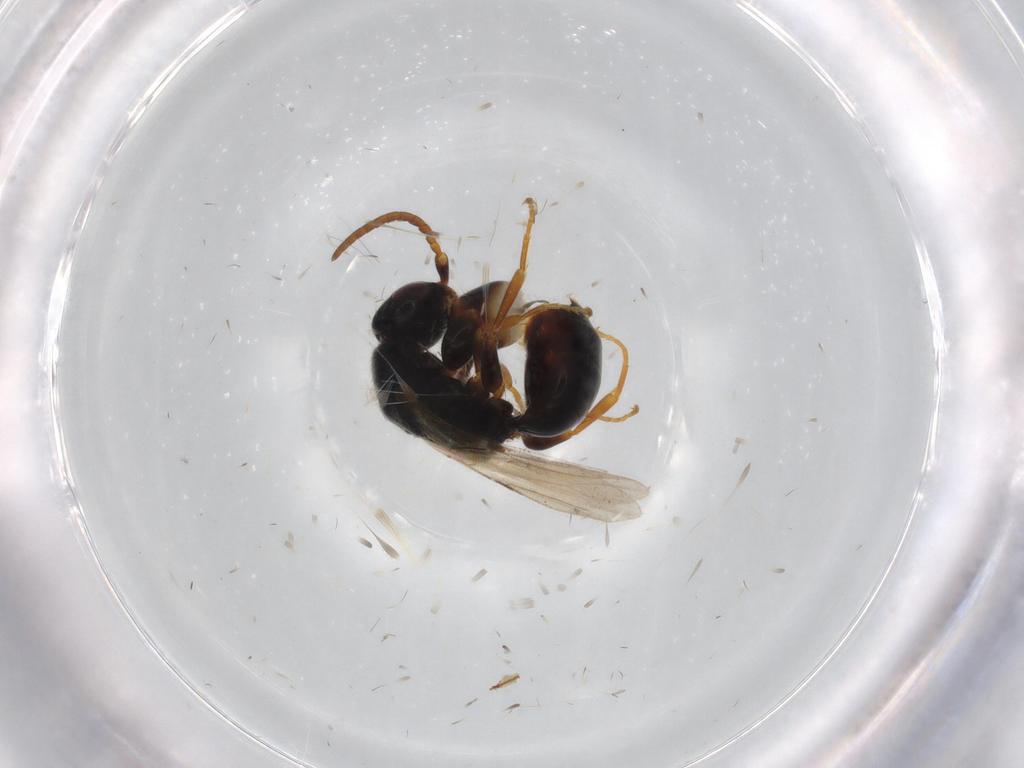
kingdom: Animalia
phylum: Arthropoda
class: Insecta
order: Hymenoptera
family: Bethylidae
